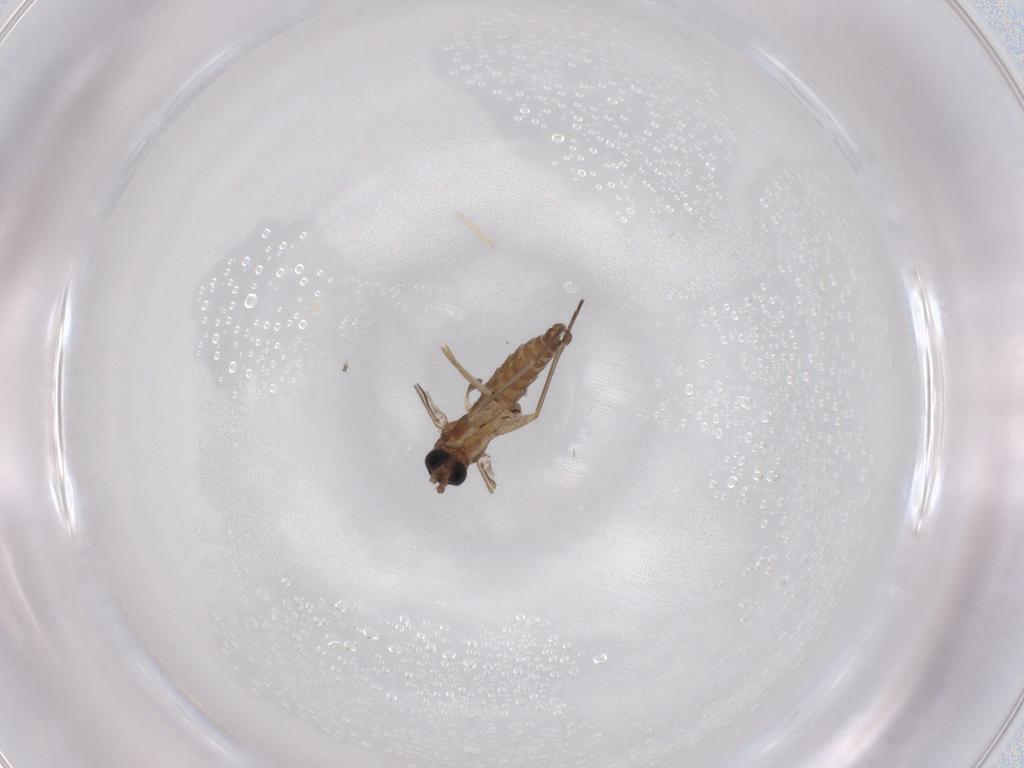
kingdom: Animalia
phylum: Arthropoda
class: Insecta
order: Diptera
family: Sciaridae
